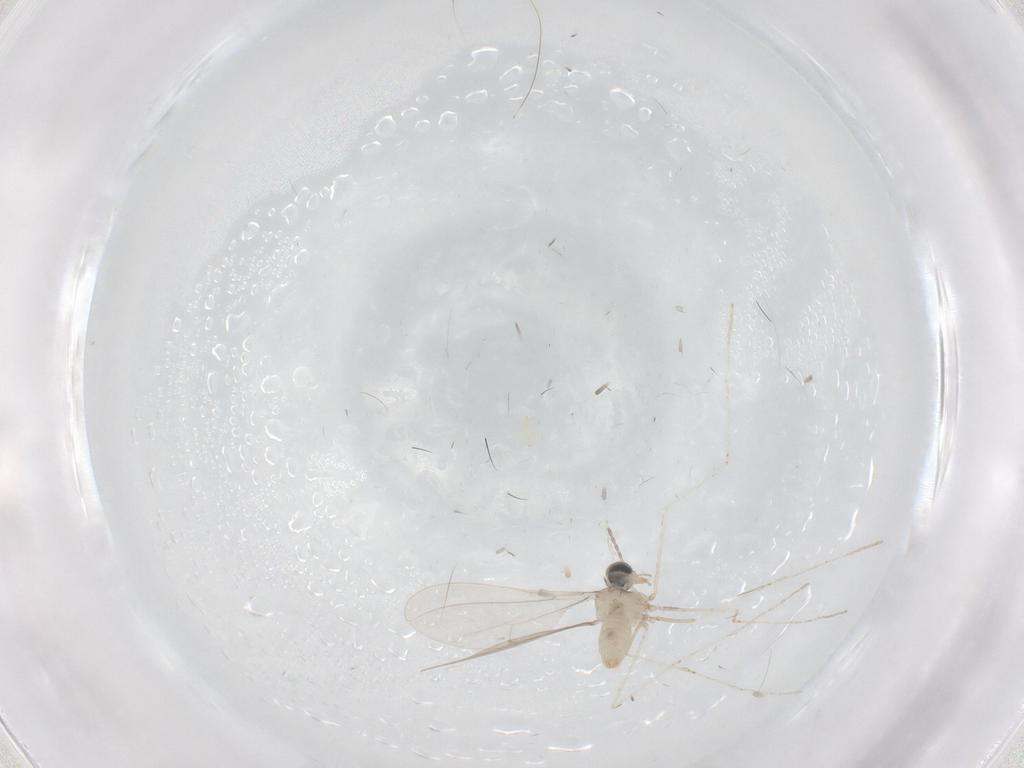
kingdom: Animalia
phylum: Arthropoda
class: Insecta
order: Diptera
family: Cecidomyiidae
